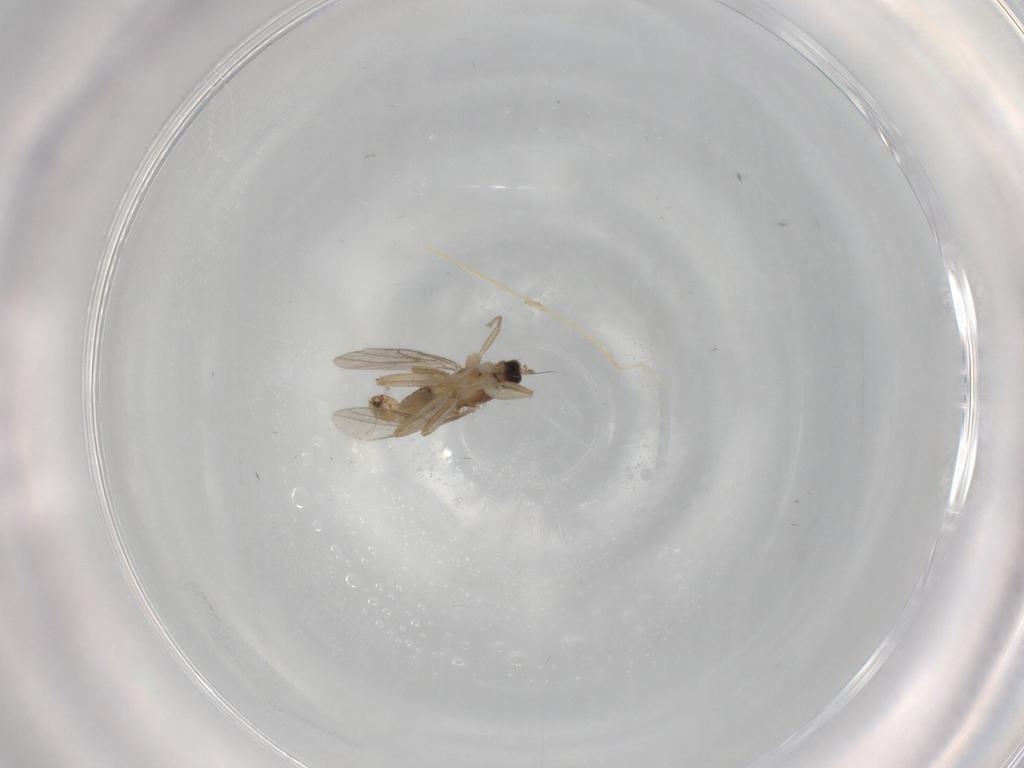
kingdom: Animalia
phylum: Arthropoda
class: Insecta
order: Diptera
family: Hybotidae
